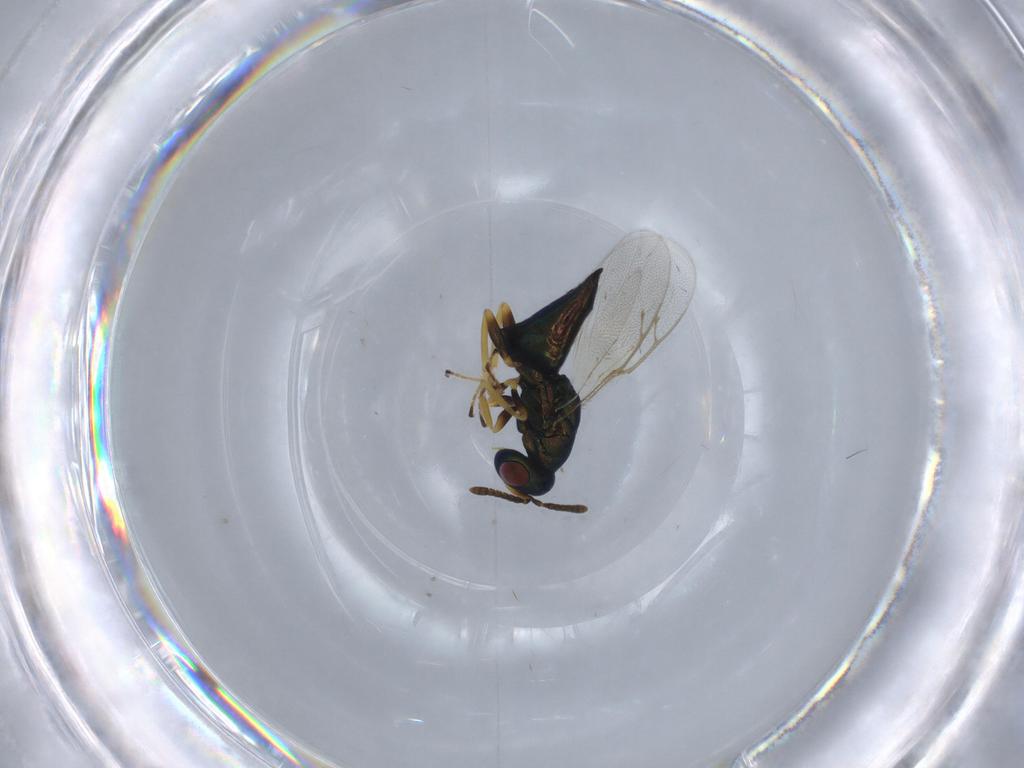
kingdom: Animalia
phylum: Arthropoda
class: Insecta
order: Hymenoptera
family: Pteromalidae
